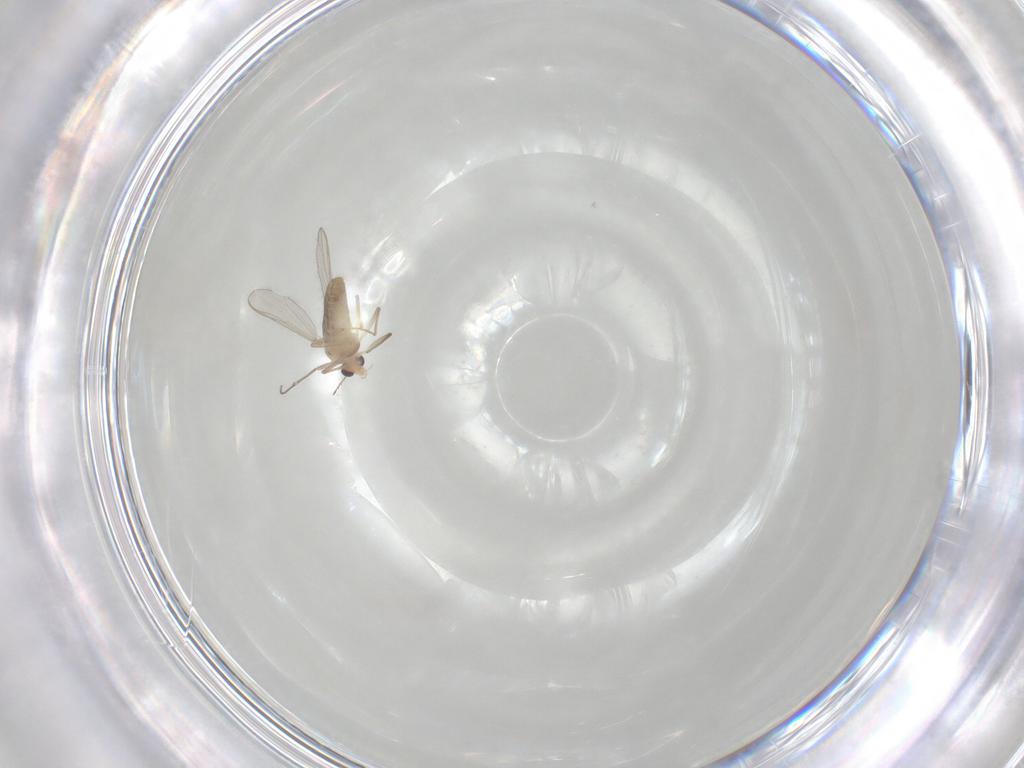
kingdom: Animalia
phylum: Arthropoda
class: Insecta
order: Diptera
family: Chironomidae
